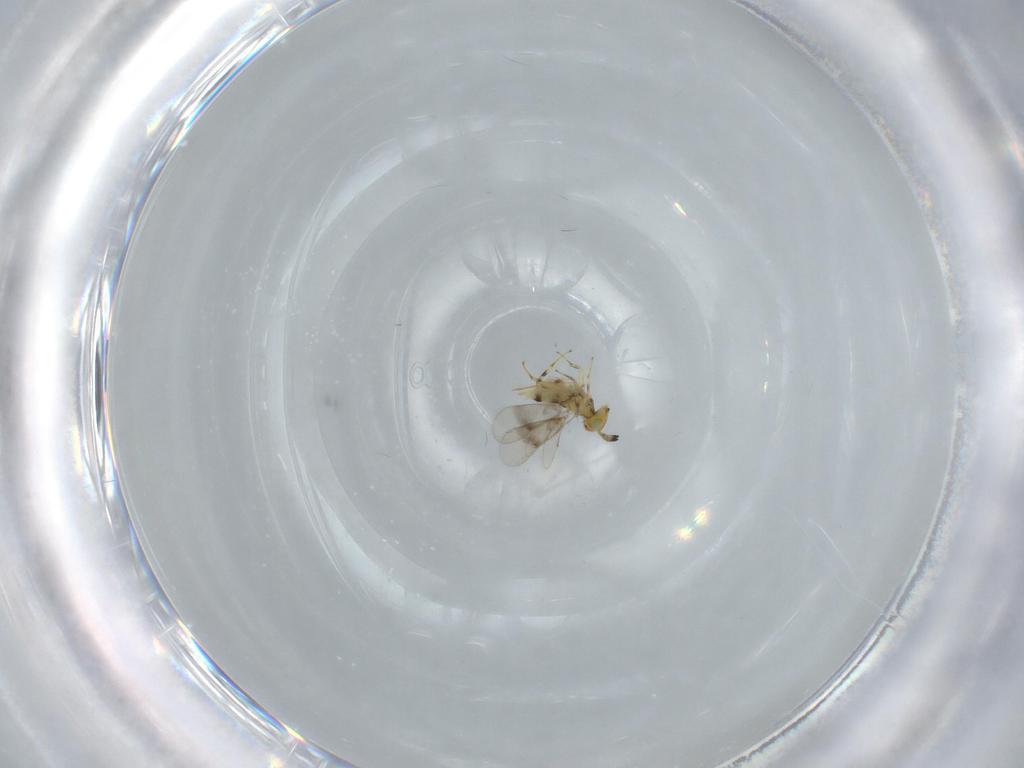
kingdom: Animalia
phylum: Arthropoda
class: Insecta
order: Hymenoptera
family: Aphelinidae
